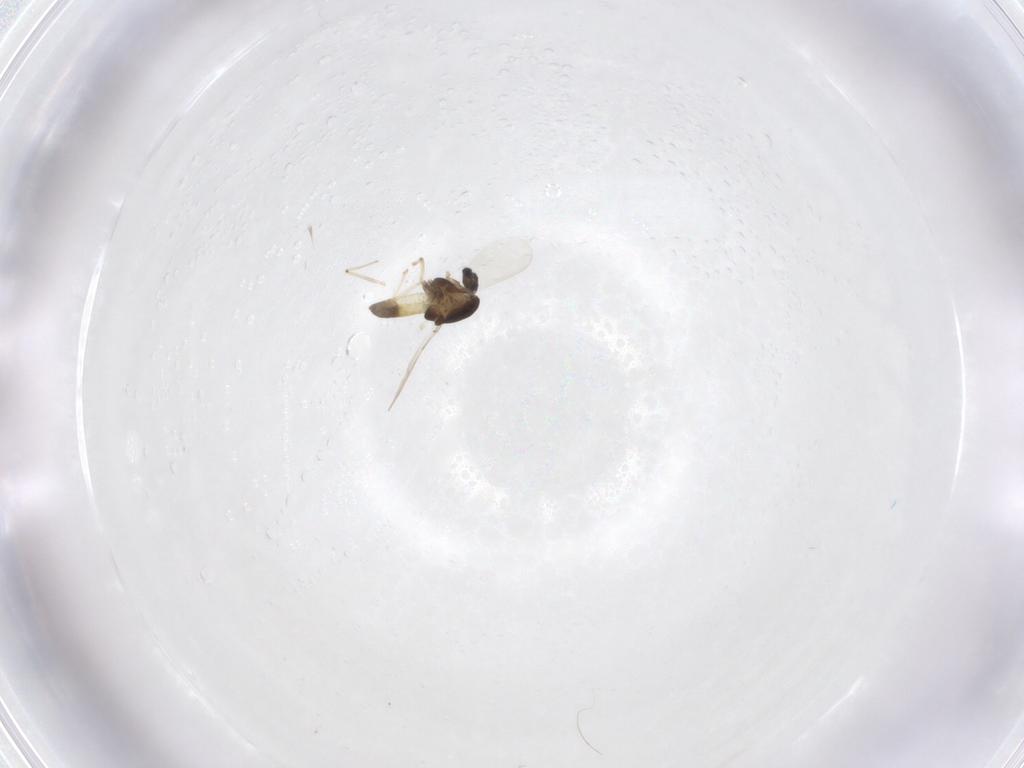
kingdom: Animalia
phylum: Arthropoda
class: Insecta
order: Diptera
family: Chironomidae
